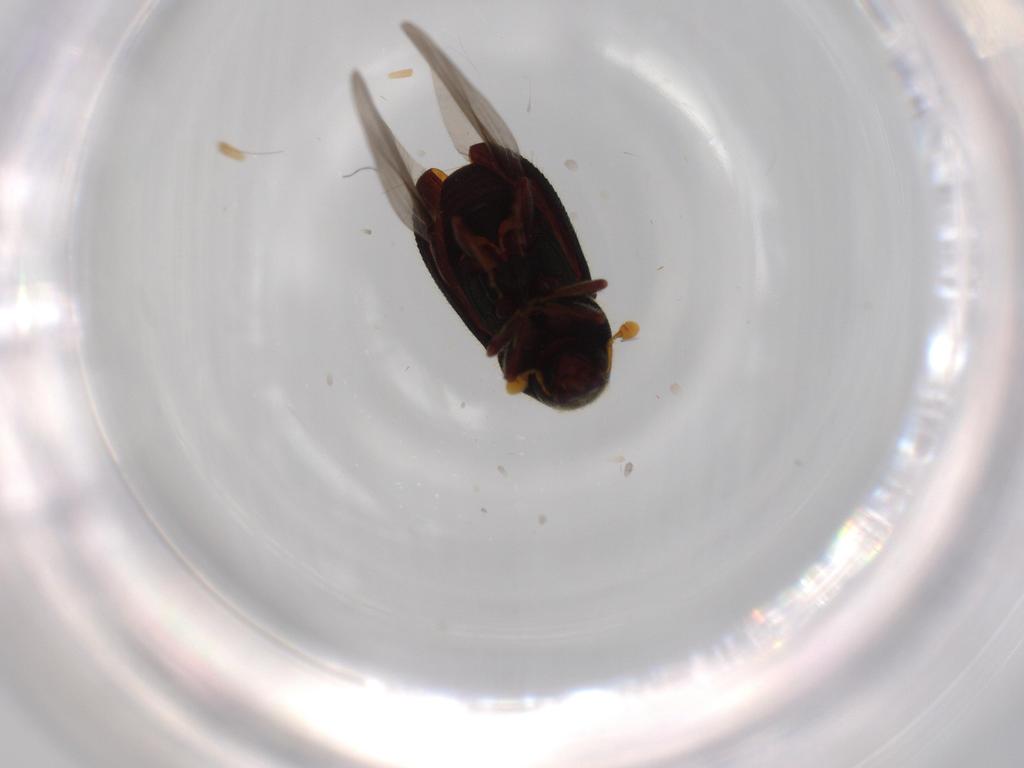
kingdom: Animalia
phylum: Arthropoda
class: Insecta
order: Coleoptera
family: Curculionidae
